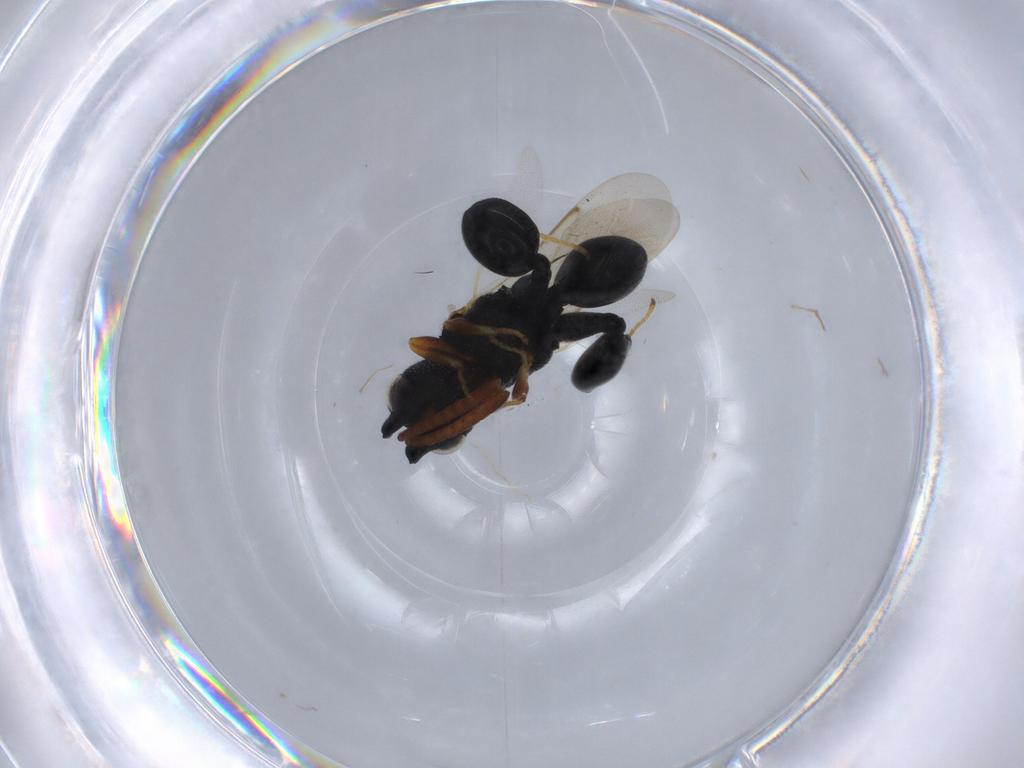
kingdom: Animalia
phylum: Arthropoda
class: Insecta
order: Hymenoptera
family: Chalcididae
